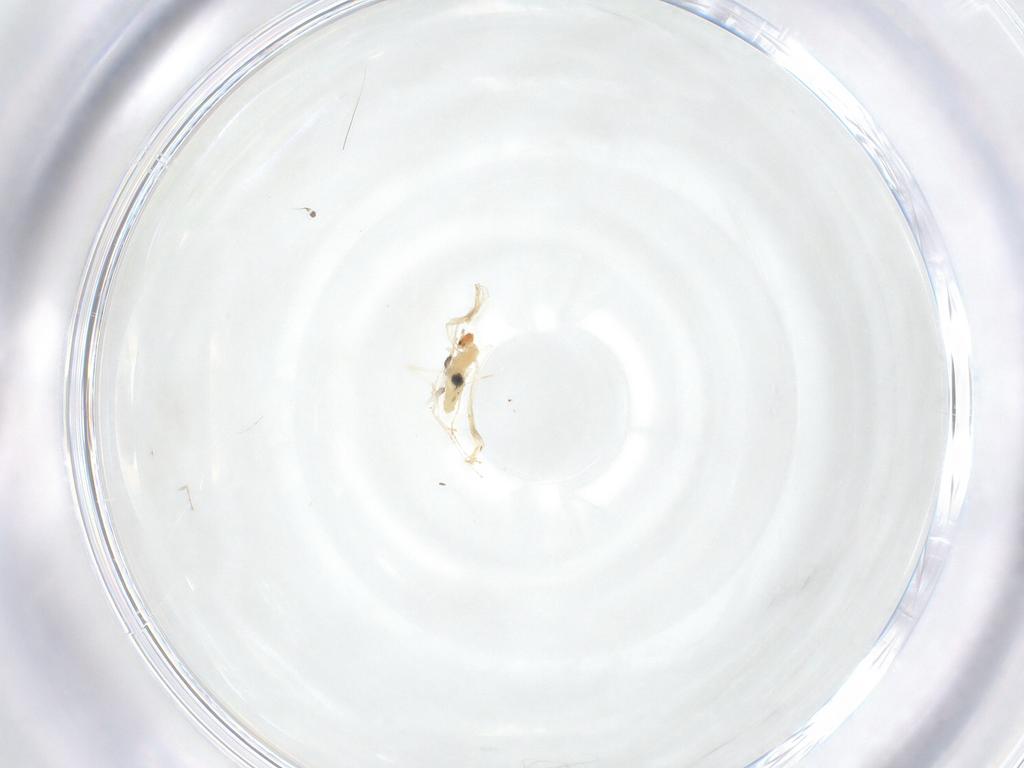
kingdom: Animalia
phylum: Arthropoda
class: Insecta
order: Diptera
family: Cecidomyiidae
